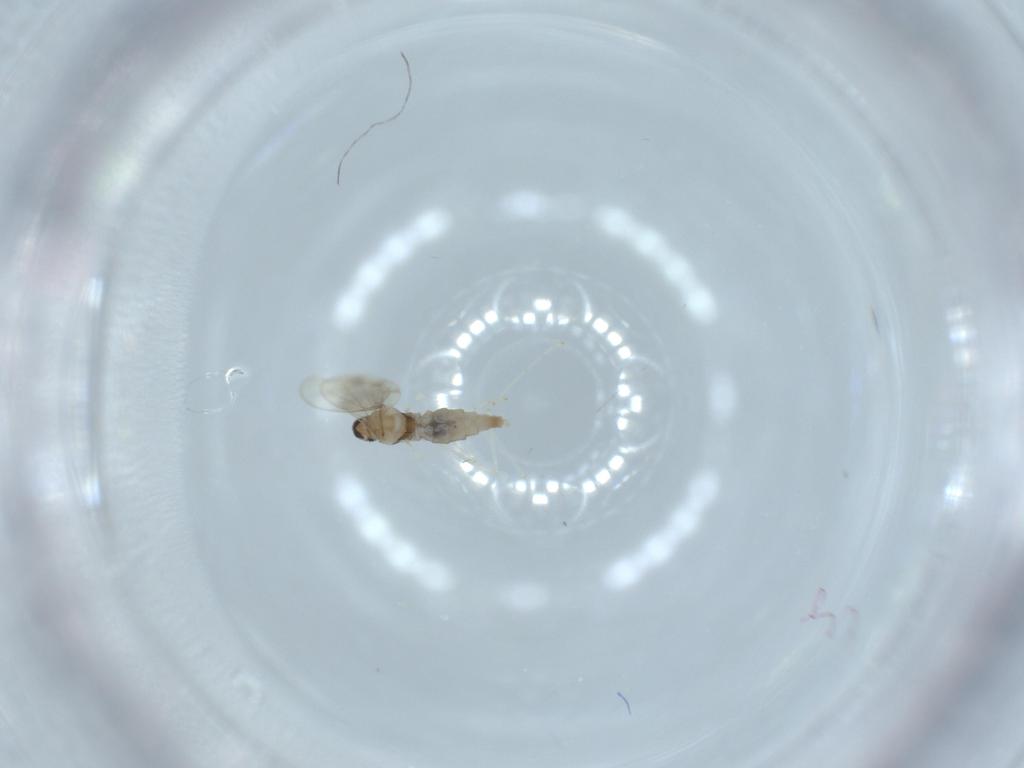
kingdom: Animalia
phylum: Arthropoda
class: Insecta
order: Diptera
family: Cecidomyiidae
